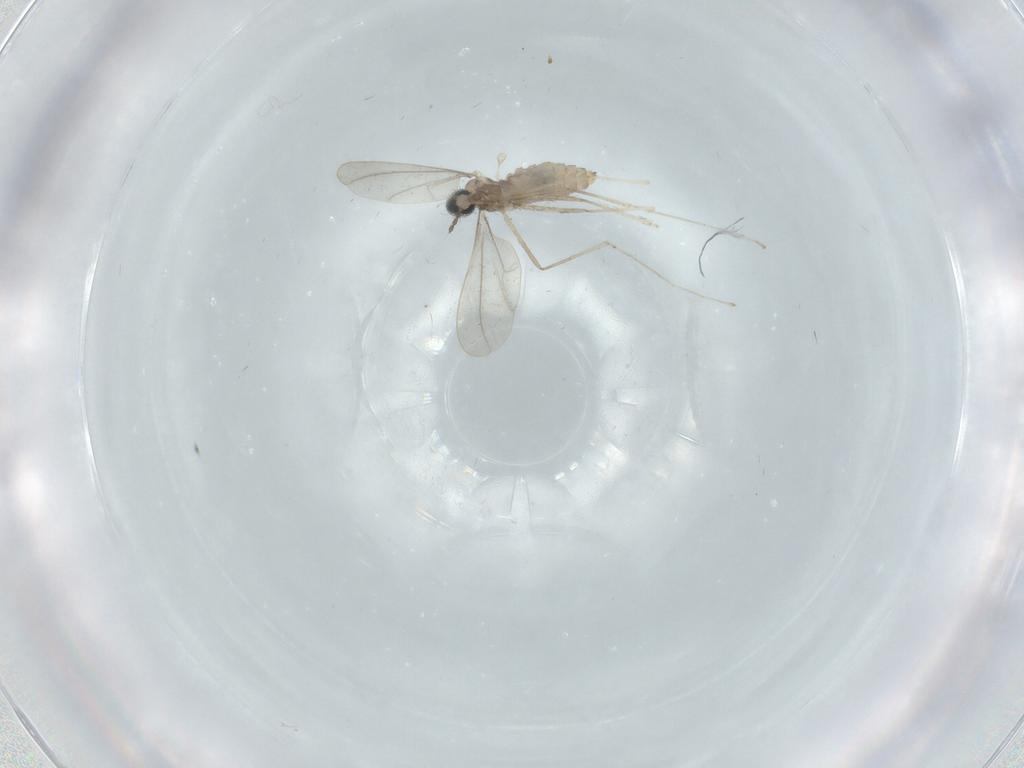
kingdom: Animalia
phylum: Arthropoda
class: Insecta
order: Diptera
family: Cecidomyiidae
